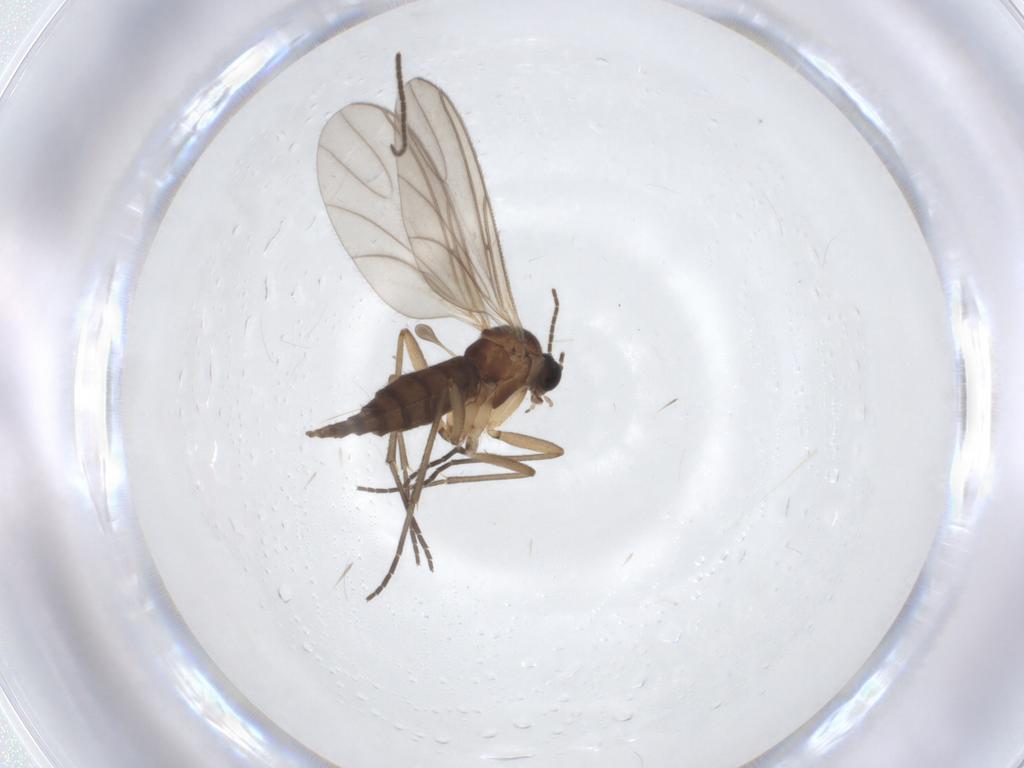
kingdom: Animalia
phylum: Arthropoda
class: Insecta
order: Diptera
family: Sciaridae
